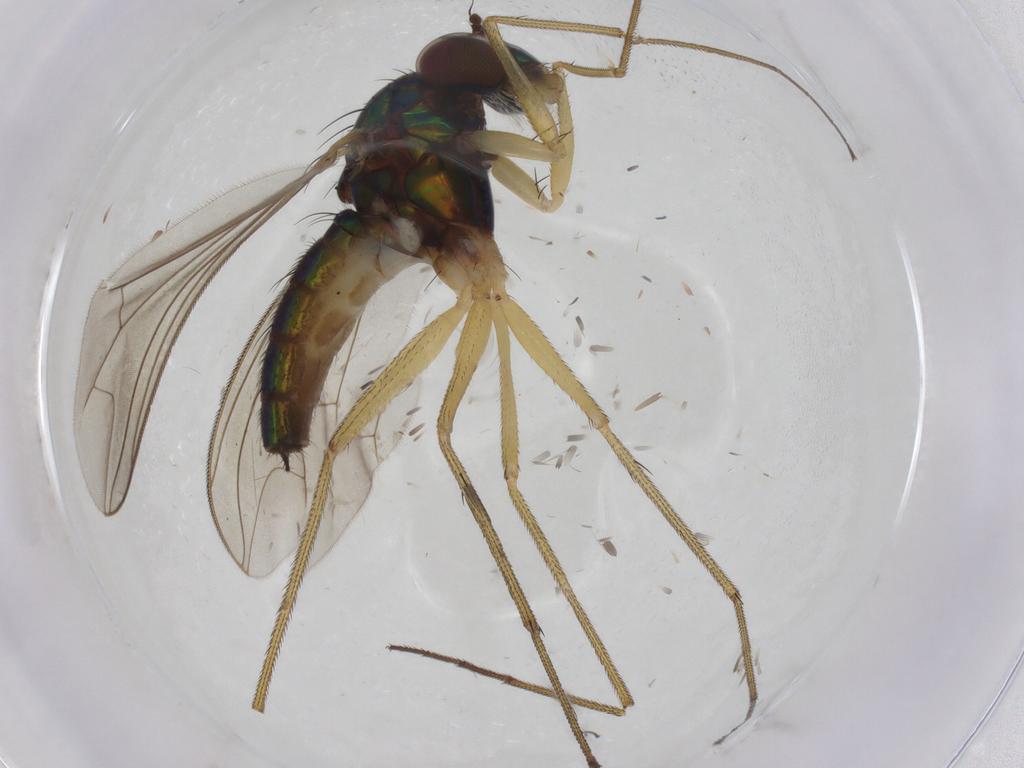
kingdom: Animalia
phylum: Arthropoda
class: Insecta
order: Diptera
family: Dolichopodidae
